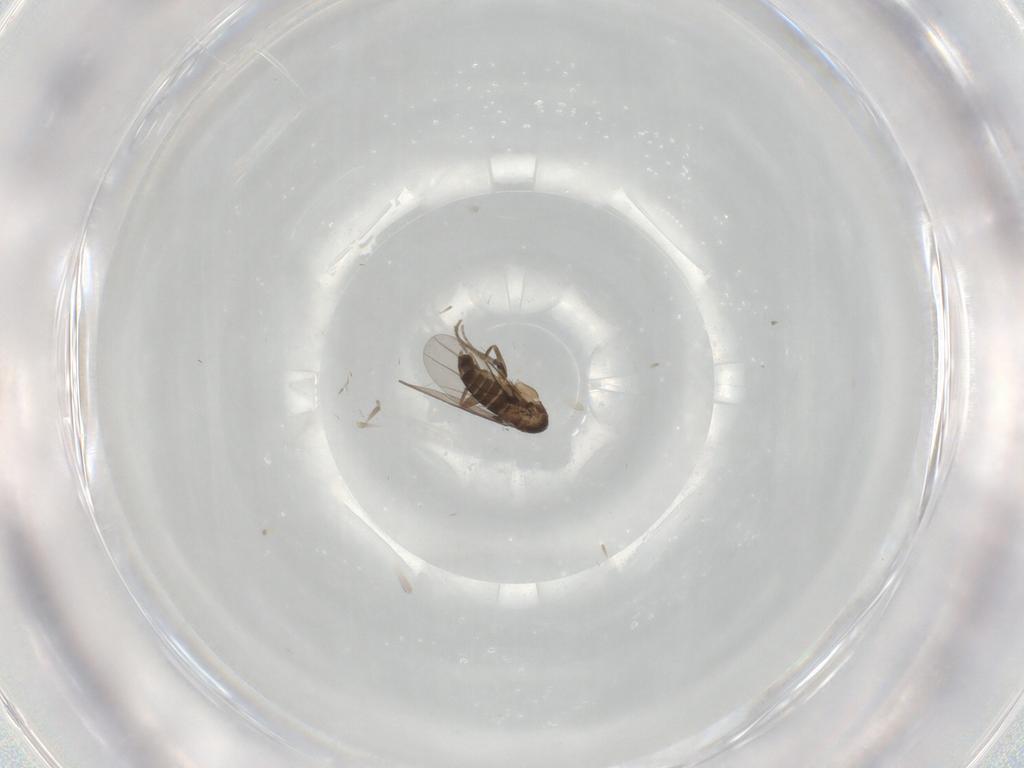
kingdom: Animalia
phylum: Arthropoda
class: Insecta
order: Diptera
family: Phoridae
